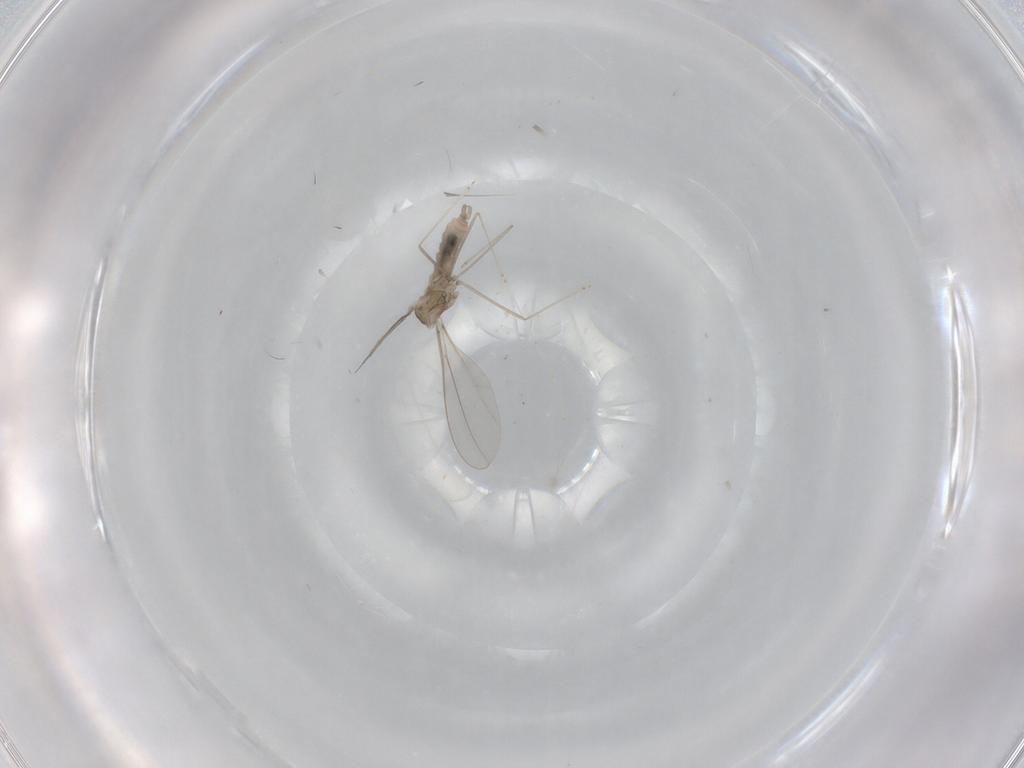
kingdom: Animalia
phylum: Arthropoda
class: Insecta
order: Diptera
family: Cecidomyiidae
